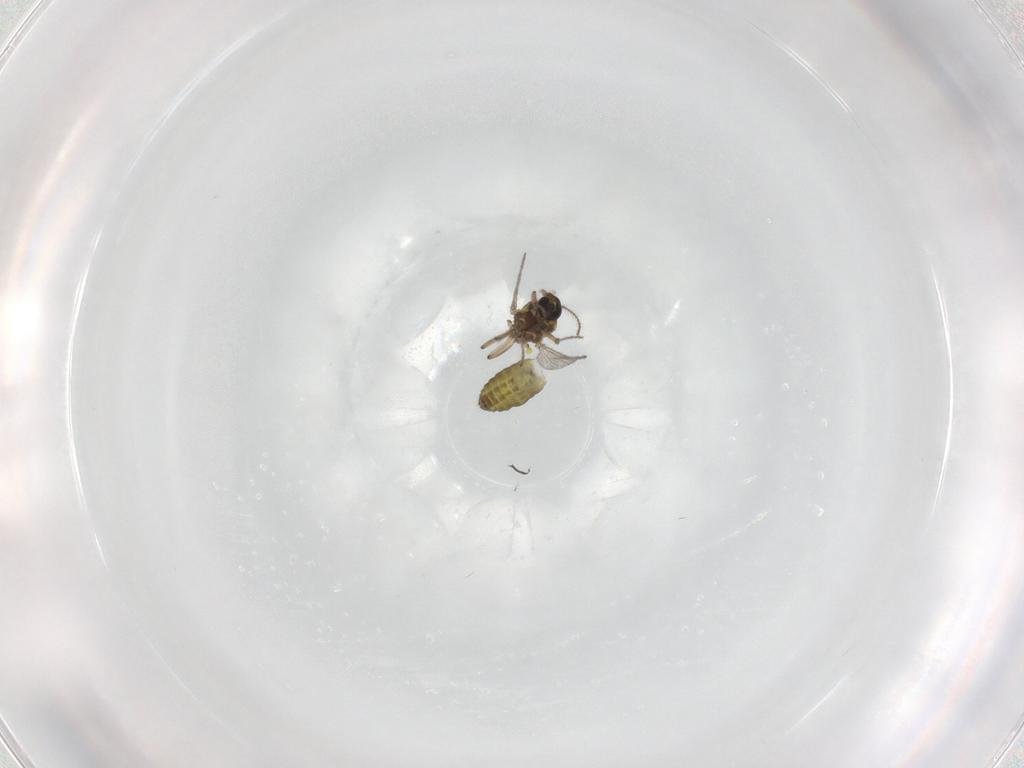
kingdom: Animalia
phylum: Arthropoda
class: Insecta
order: Diptera
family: Ceratopogonidae
